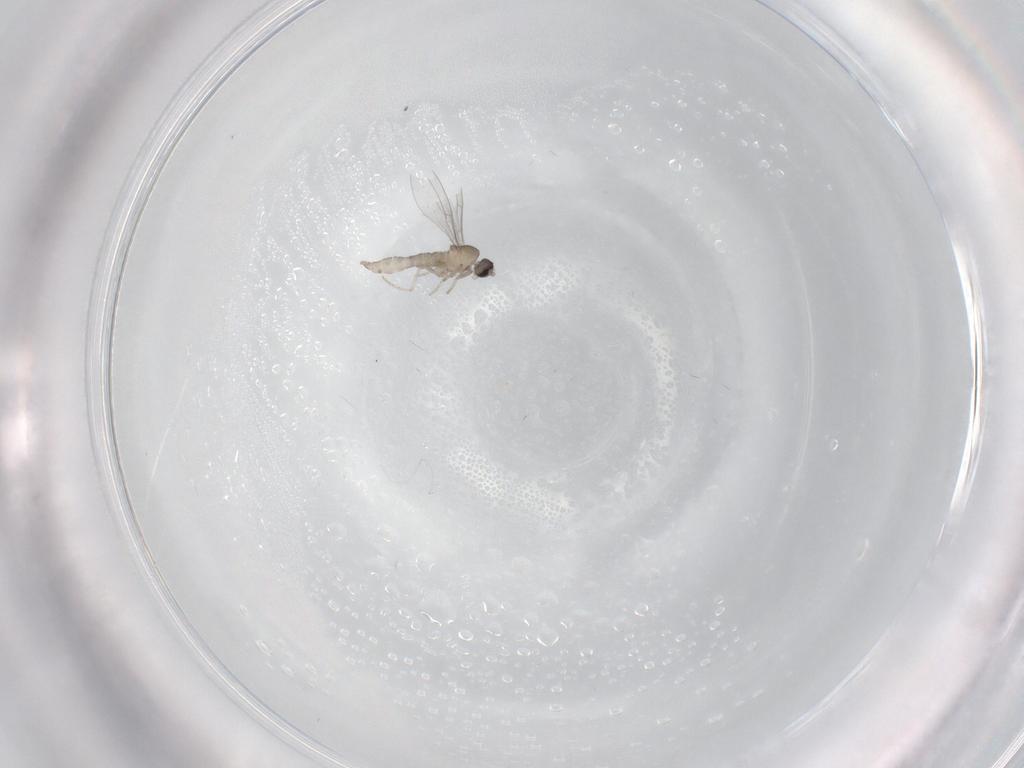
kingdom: Animalia
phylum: Arthropoda
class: Insecta
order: Diptera
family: Cecidomyiidae
